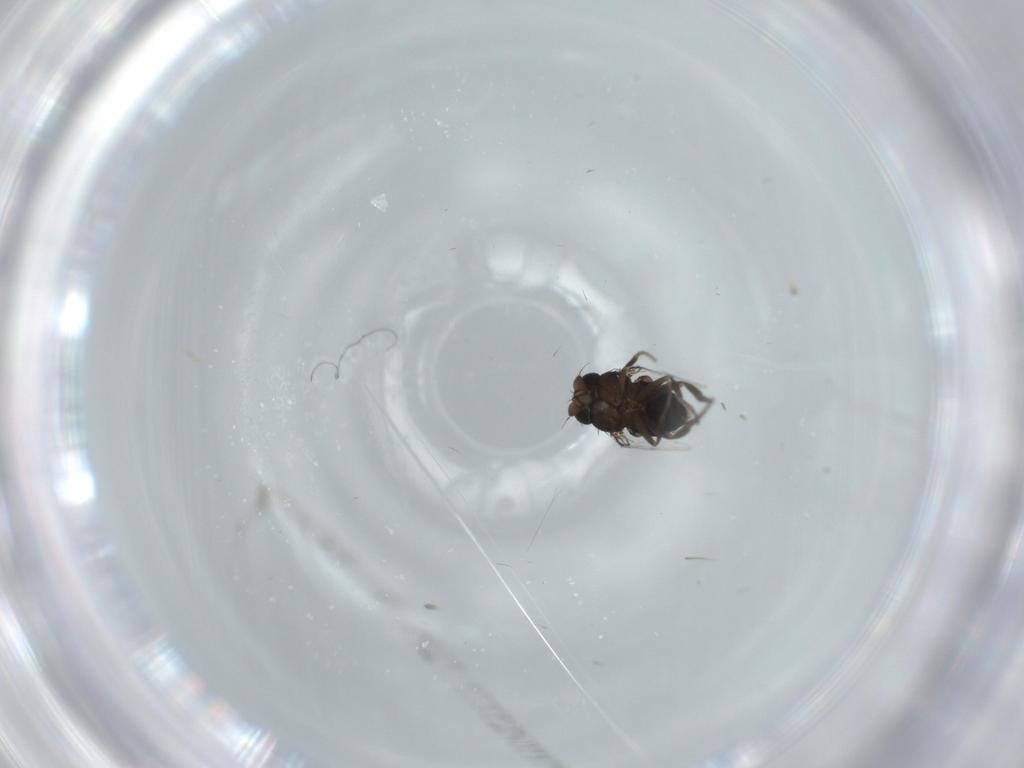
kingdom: Animalia
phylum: Arthropoda
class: Insecta
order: Diptera
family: Phoridae
